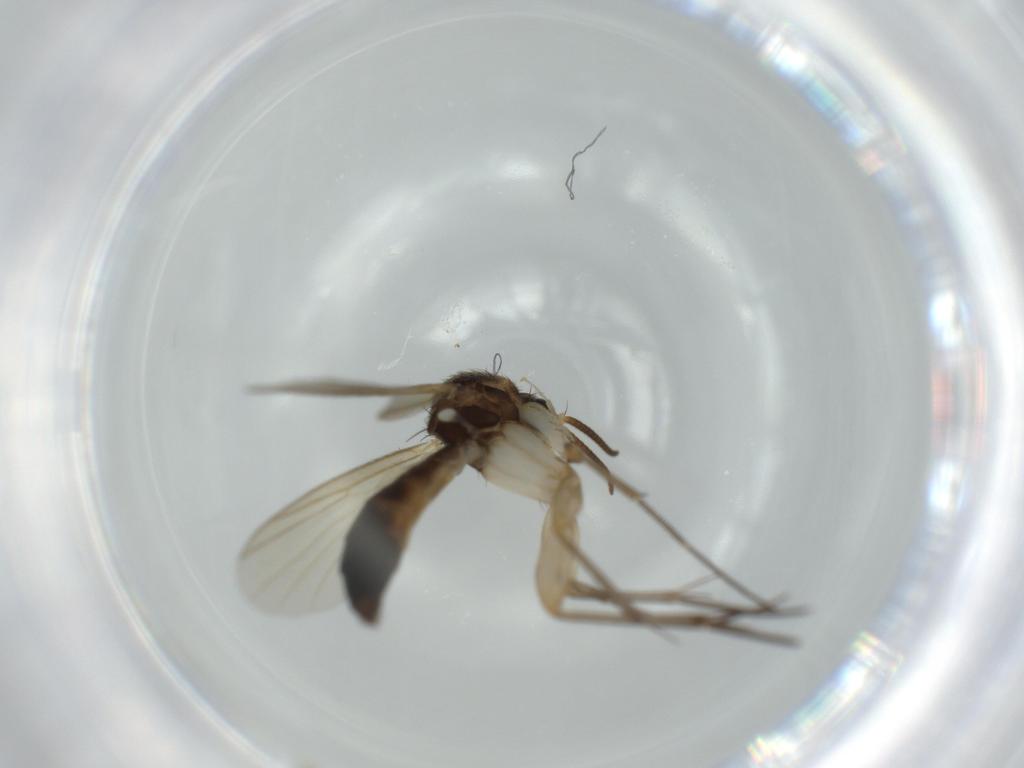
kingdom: Animalia
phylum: Arthropoda
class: Insecta
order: Diptera
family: Mycetophilidae
